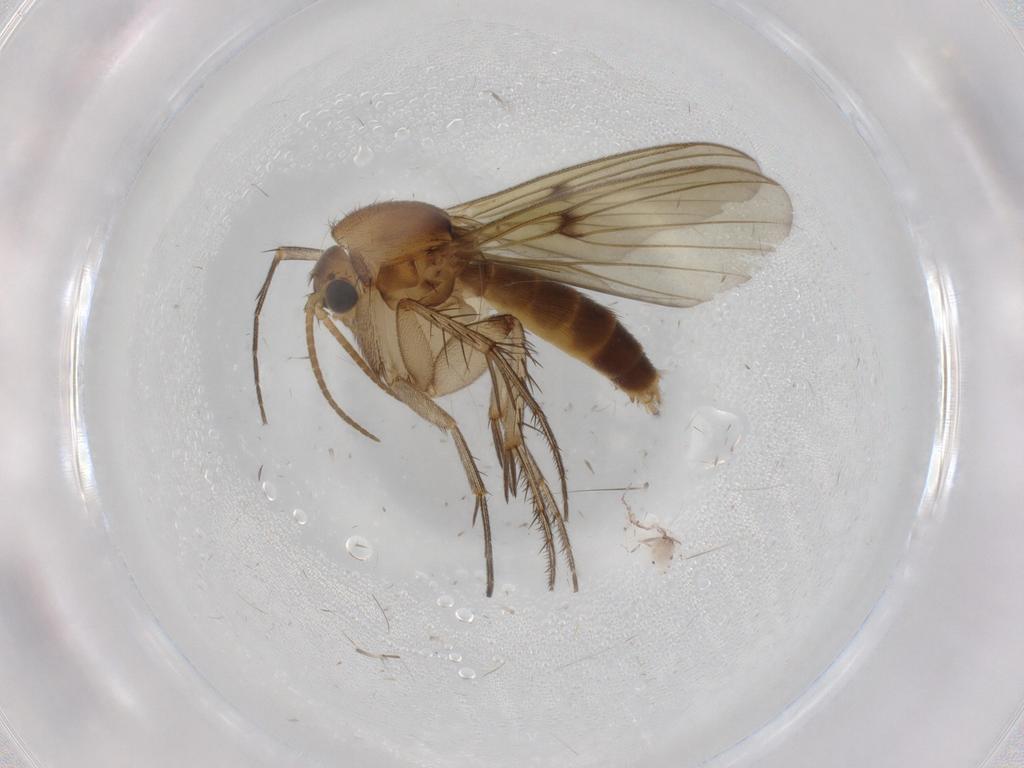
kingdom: Animalia
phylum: Arthropoda
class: Insecta
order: Diptera
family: Mycetophilidae
